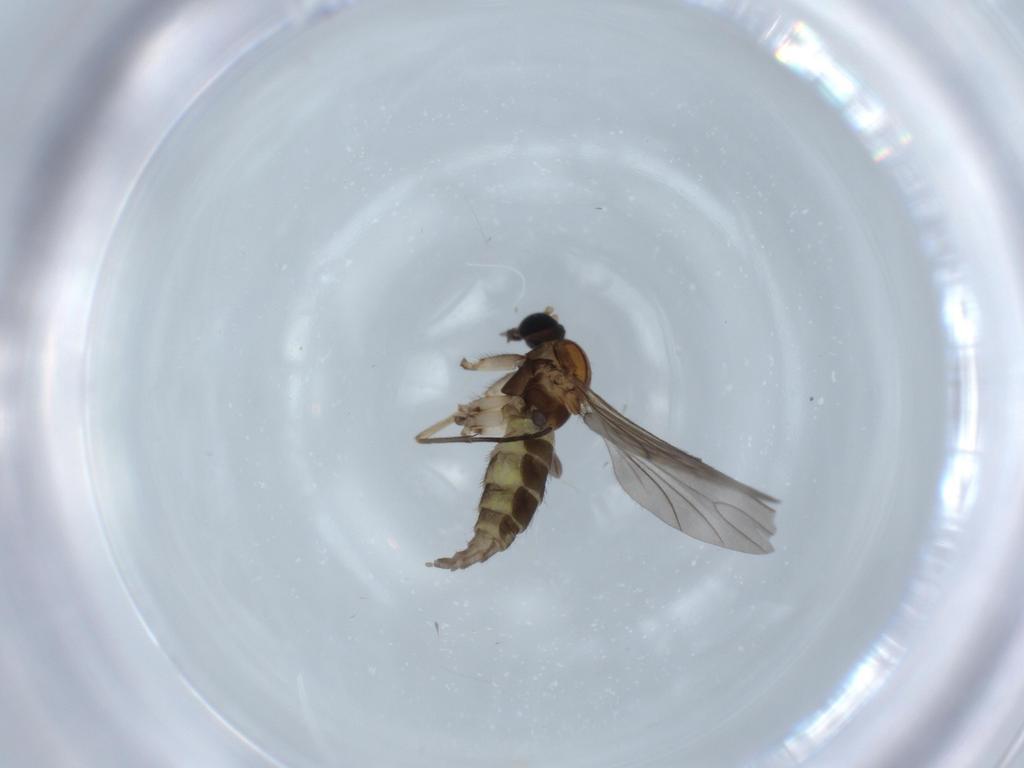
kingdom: Animalia
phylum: Arthropoda
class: Insecta
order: Diptera
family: Sciaridae
